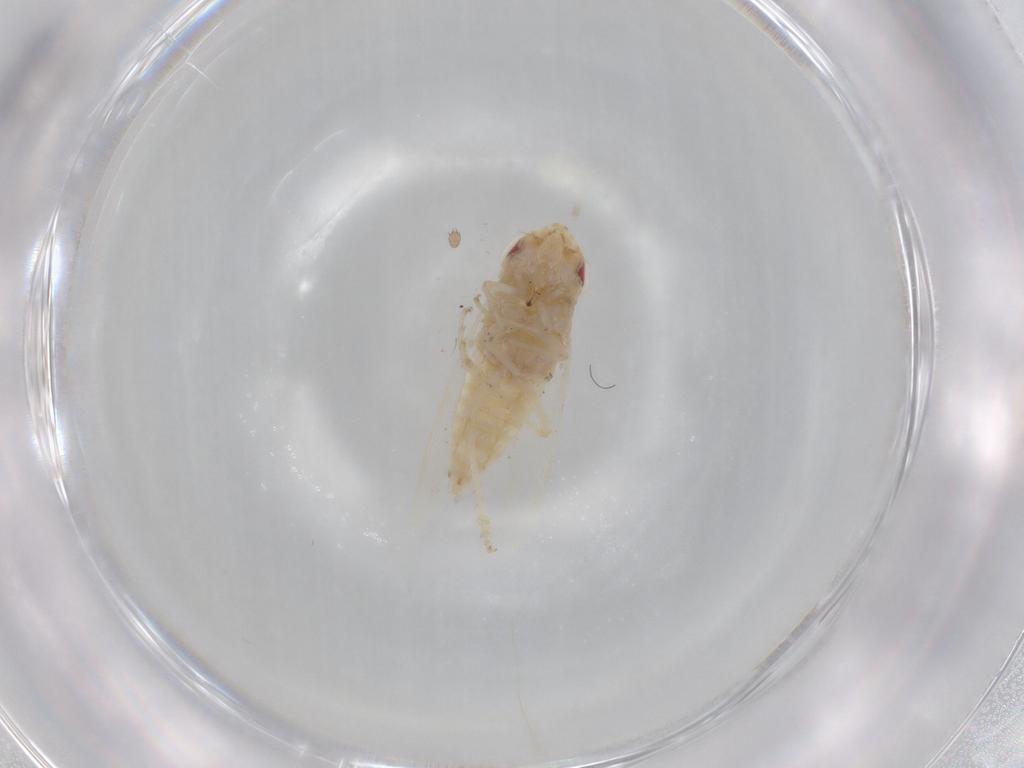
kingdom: Animalia
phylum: Arthropoda
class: Insecta
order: Hemiptera
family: Cicadellidae
